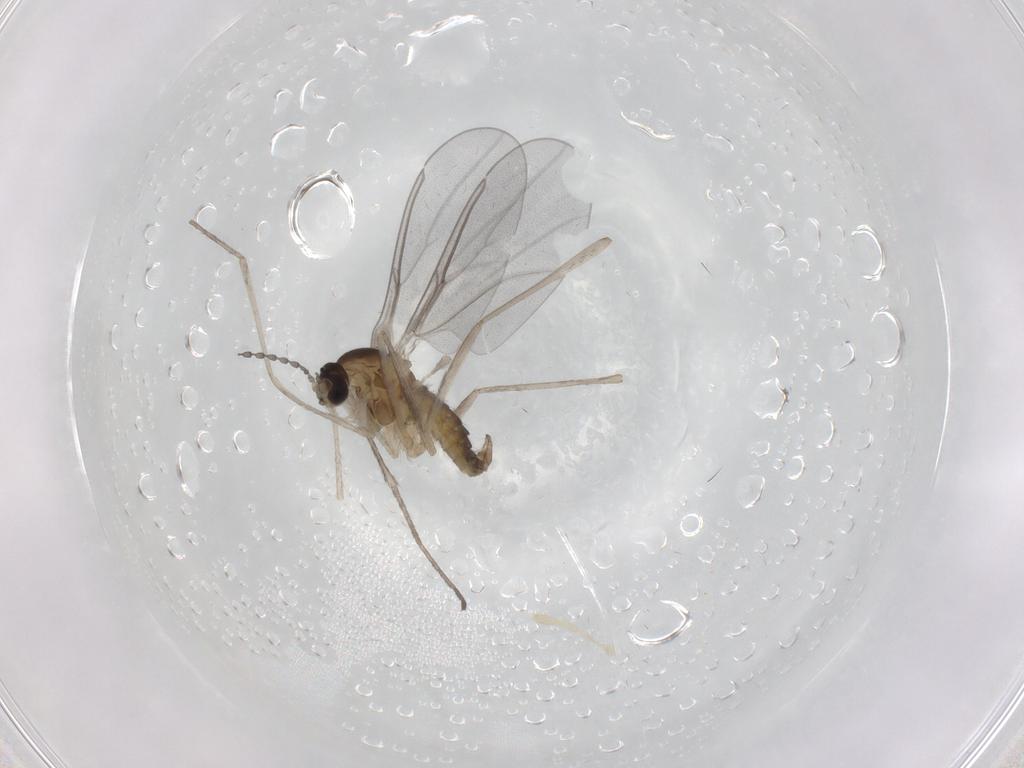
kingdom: Animalia
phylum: Arthropoda
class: Insecta
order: Diptera
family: Cecidomyiidae
